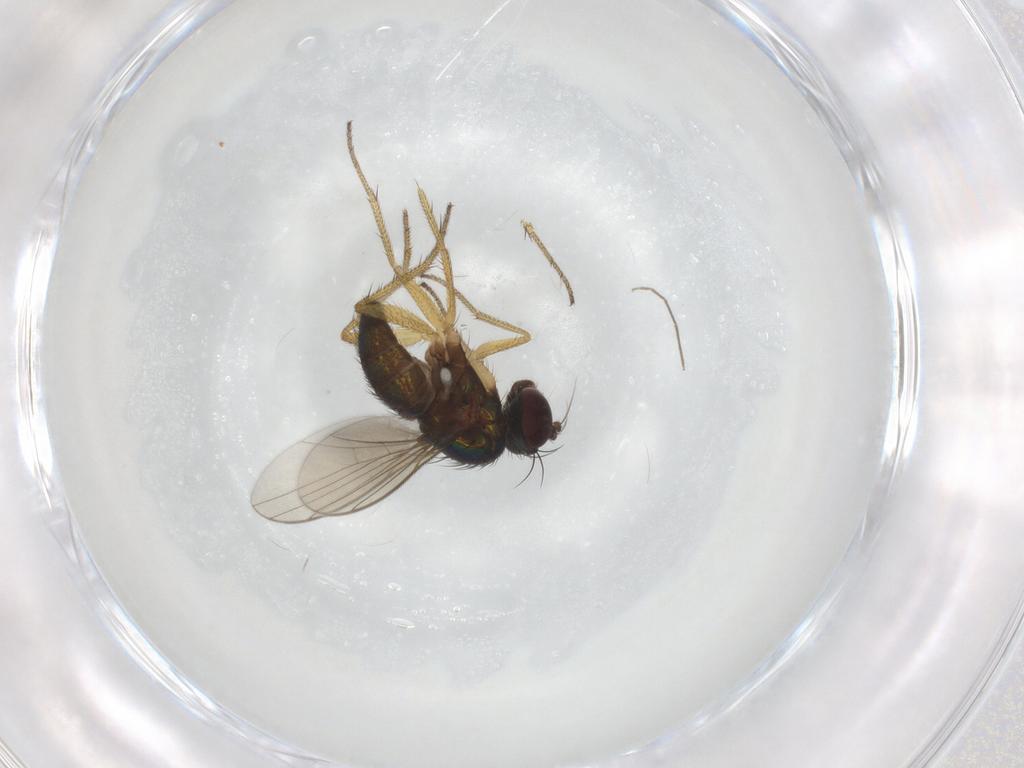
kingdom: Animalia
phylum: Arthropoda
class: Insecta
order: Diptera
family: Dolichopodidae
